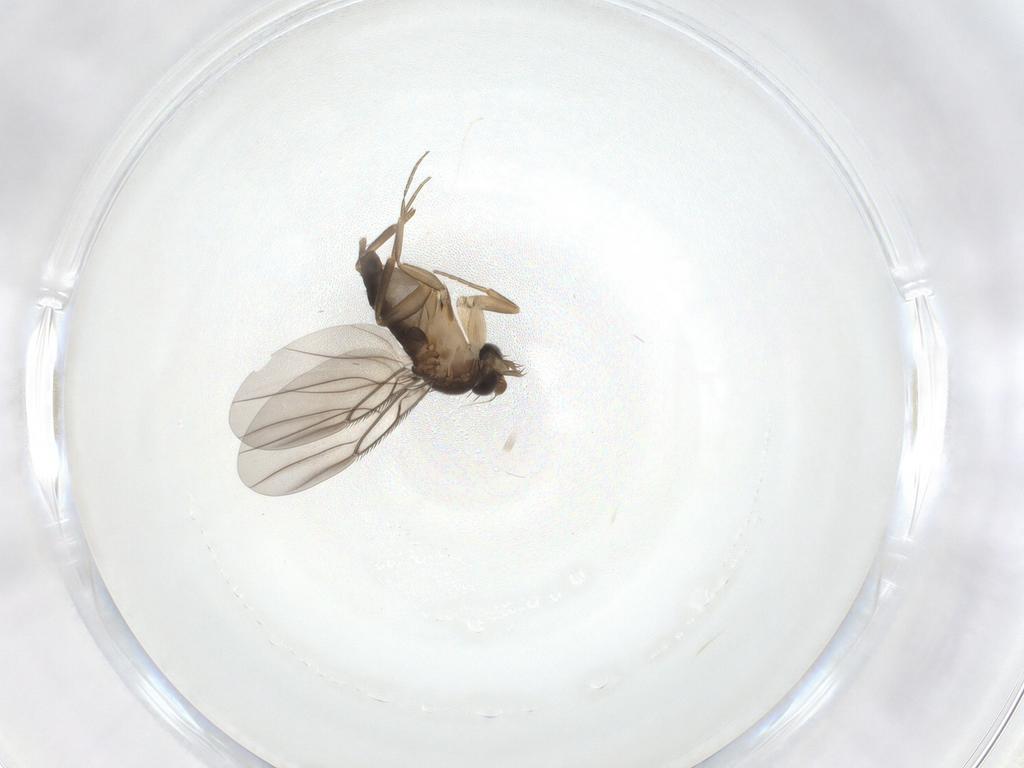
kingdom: Animalia
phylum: Arthropoda
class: Insecta
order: Diptera
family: Phoridae
